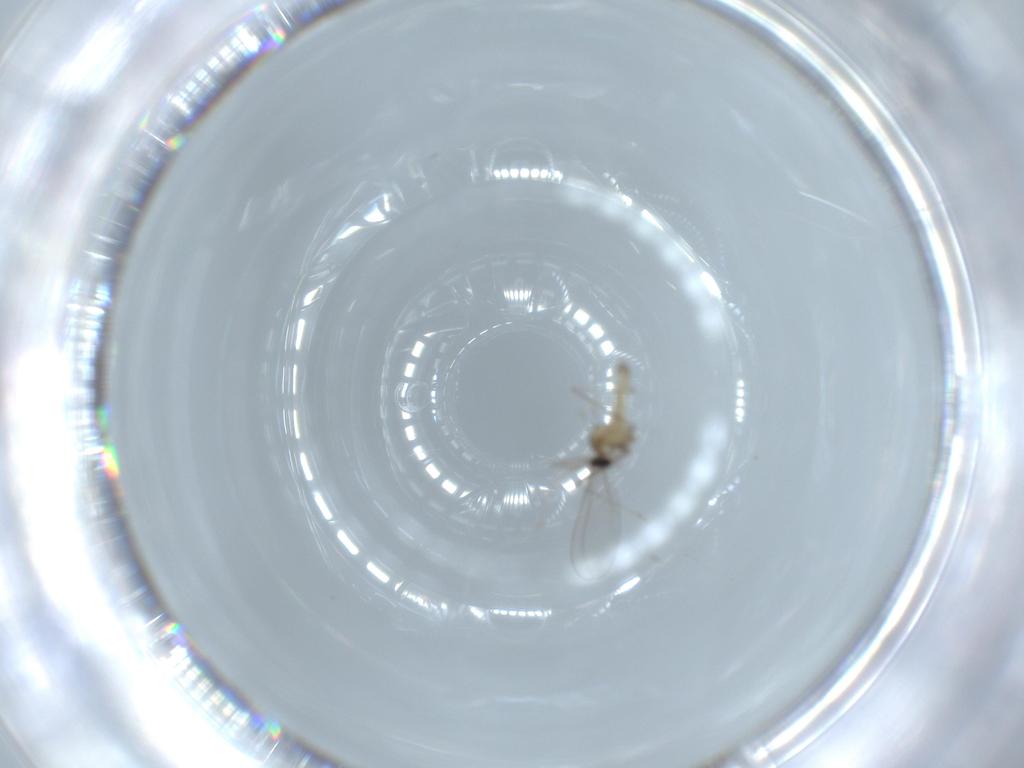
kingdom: Animalia
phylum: Arthropoda
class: Insecta
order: Diptera
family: Cecidomyiidae
